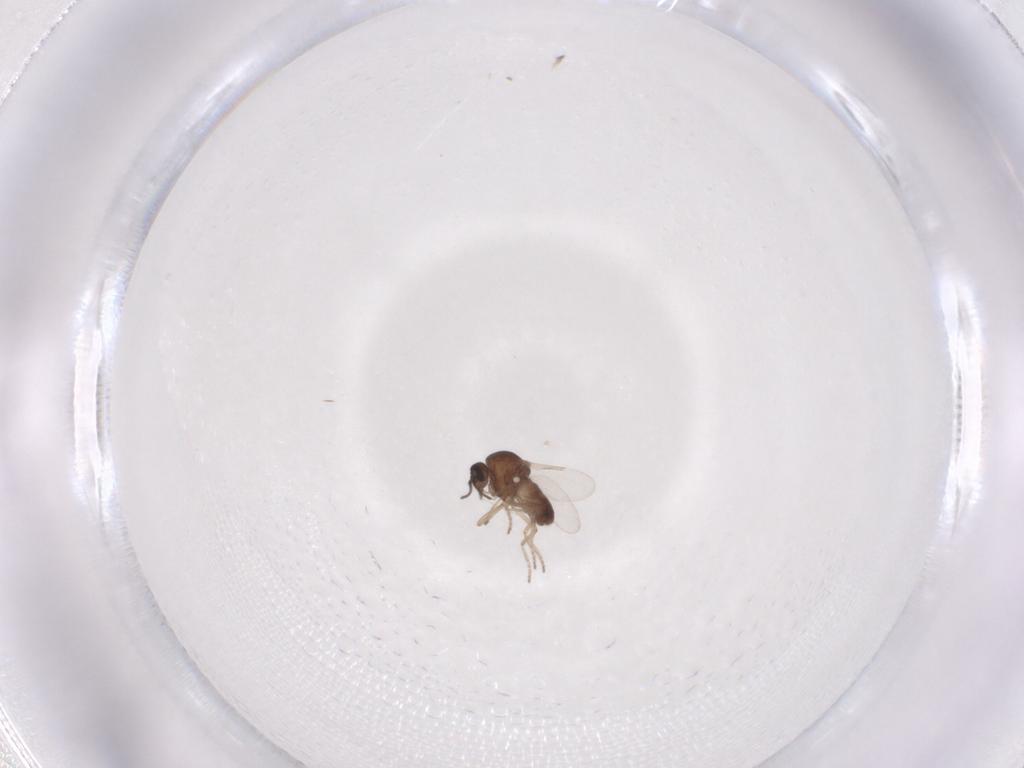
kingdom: Animalia
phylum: Arthropoda
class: Insecta
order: Diptera
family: Ceratopogonidae
